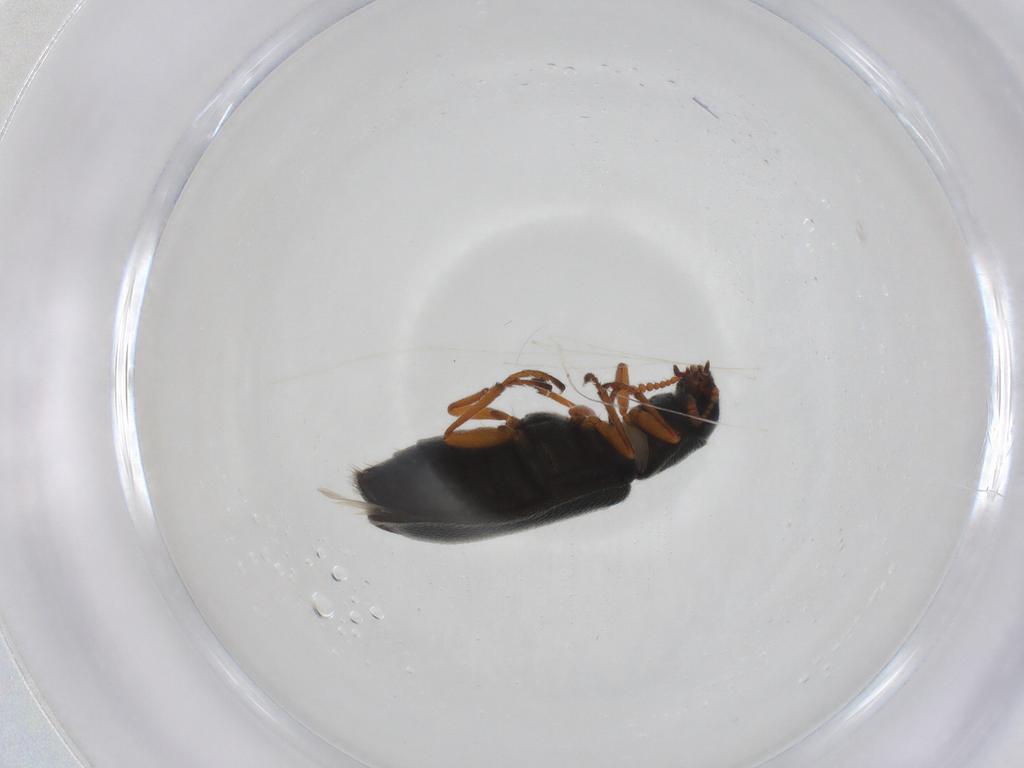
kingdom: Animalia
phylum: Arthropoda
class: Insecta
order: Coleoptera
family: Melyridae
